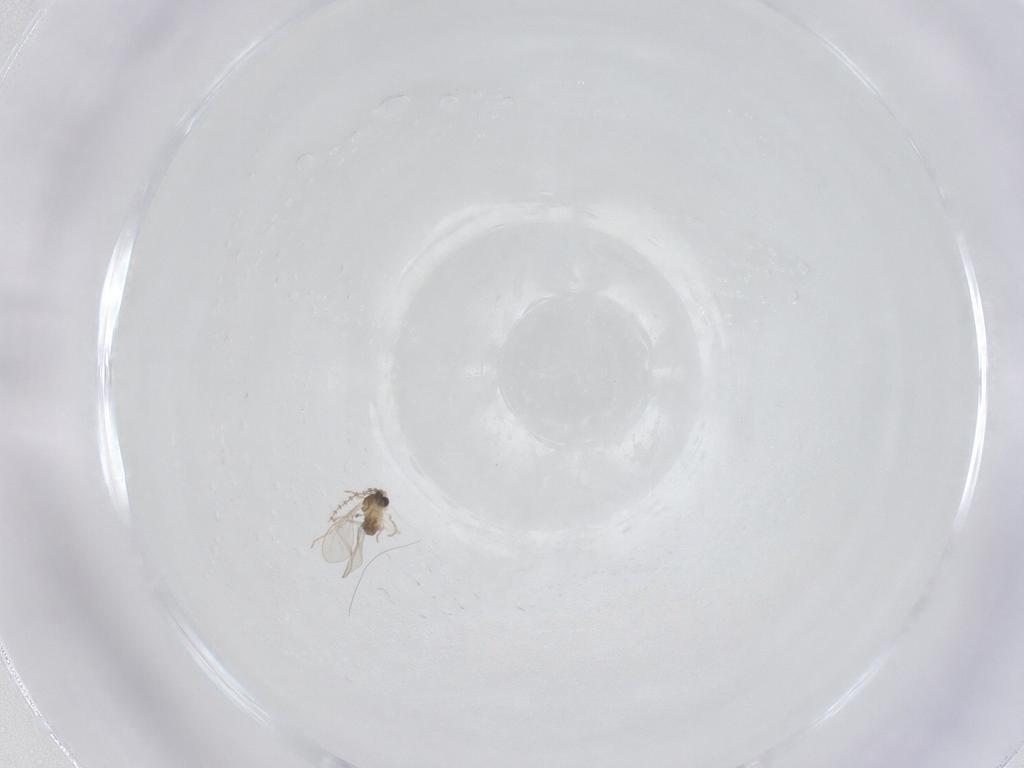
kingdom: Animalia
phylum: Arthropoda
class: Insecta
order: Diptera
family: Cecidomyiidae
